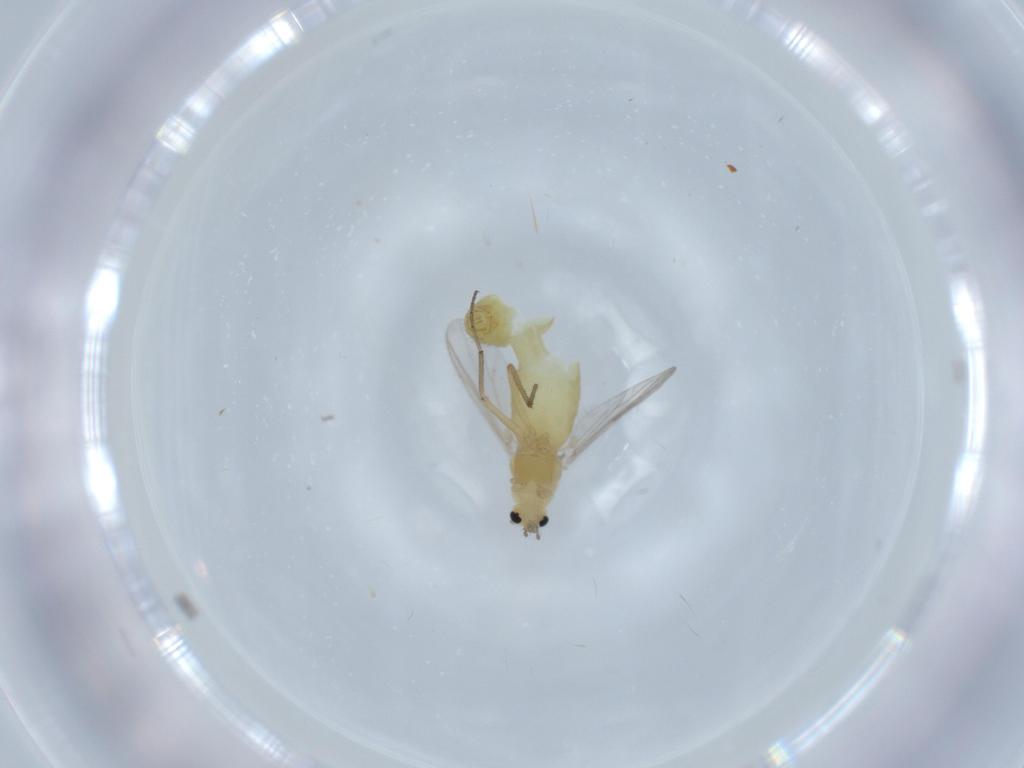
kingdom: Animalia
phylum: Arthropoda
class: Insecta
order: Diptera
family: Chironomidae
